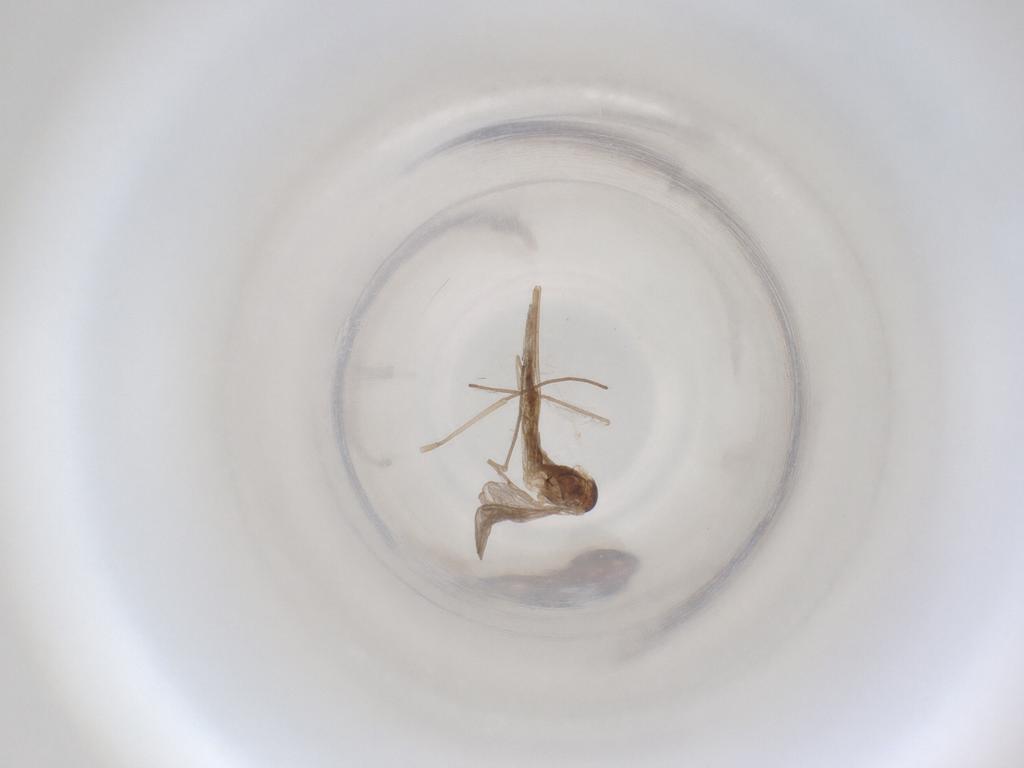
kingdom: Animalia
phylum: Arthropoda
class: Insecta
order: Diptera
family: Cecidomyiidae
